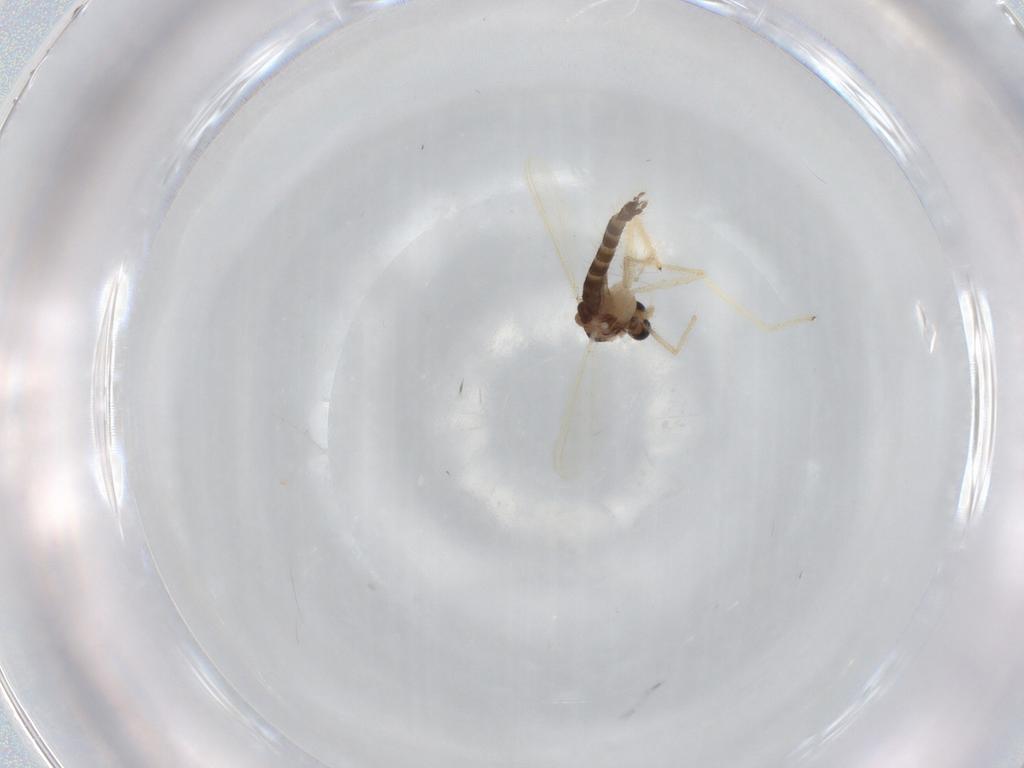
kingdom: Animalia
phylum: Arthropoda
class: Insecta
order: Diptera
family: Chironomidae
